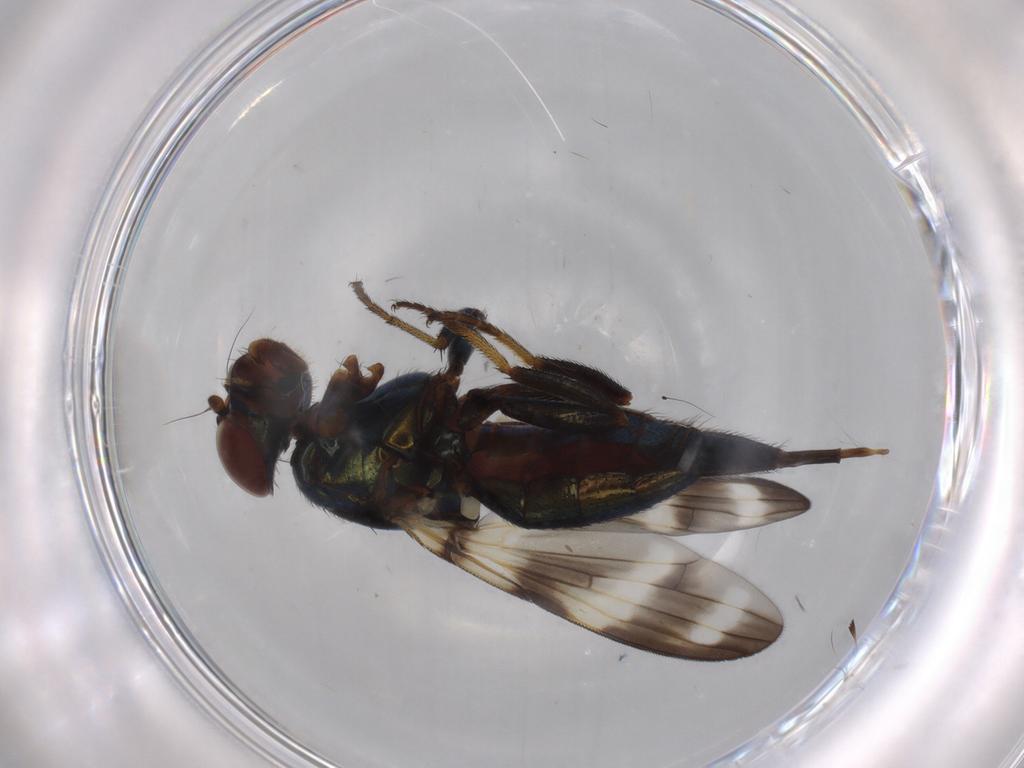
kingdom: Animalia
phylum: Arthropoda
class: Insecta
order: Diptera
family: Ulidiidae
